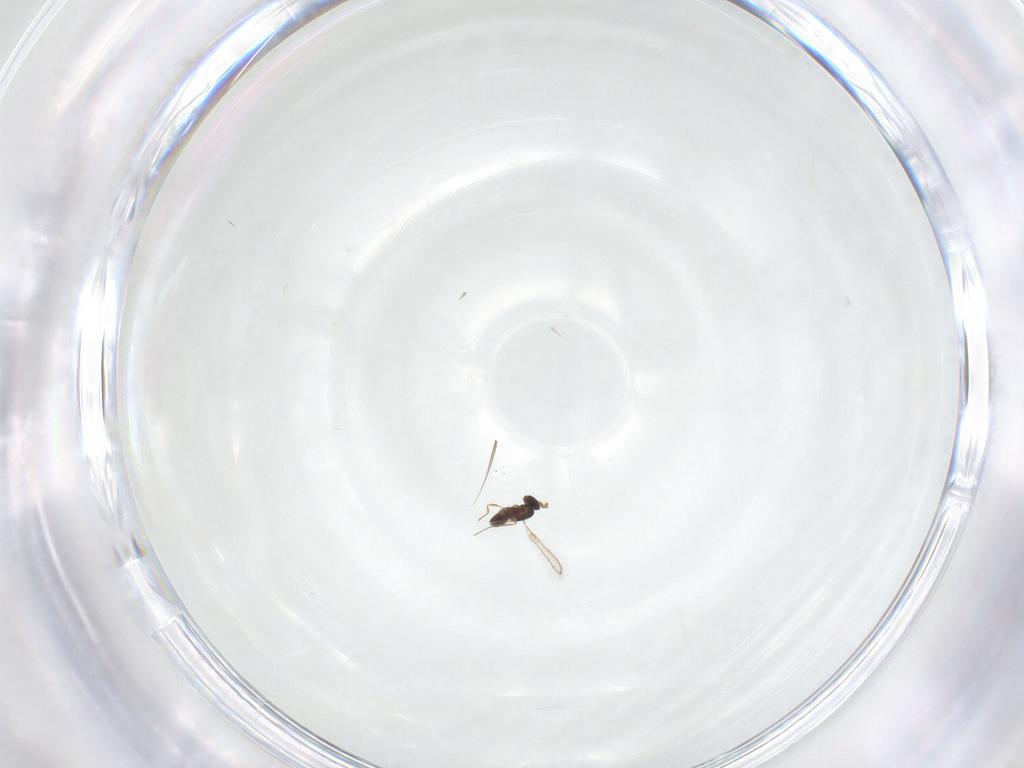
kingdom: Animalia
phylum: Arthropoda
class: Insecta
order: Hymenoptera
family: Mymaridae
